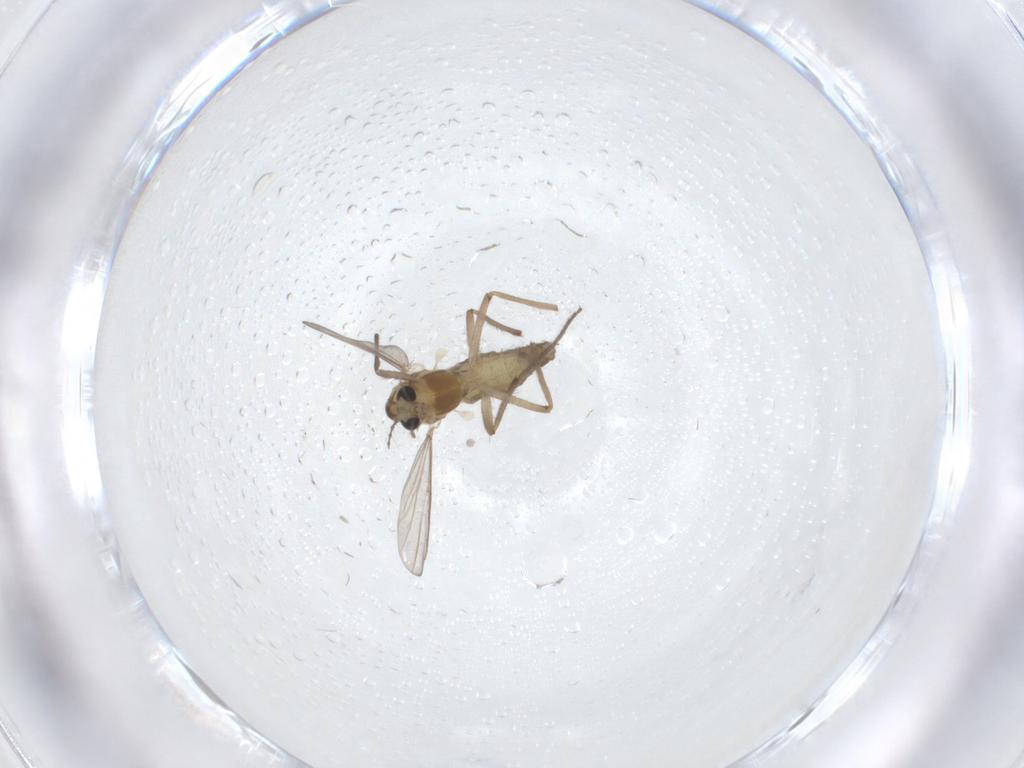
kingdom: Animalia
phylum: Arthropoda
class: Insecta
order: Diptera
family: Chironomidae
